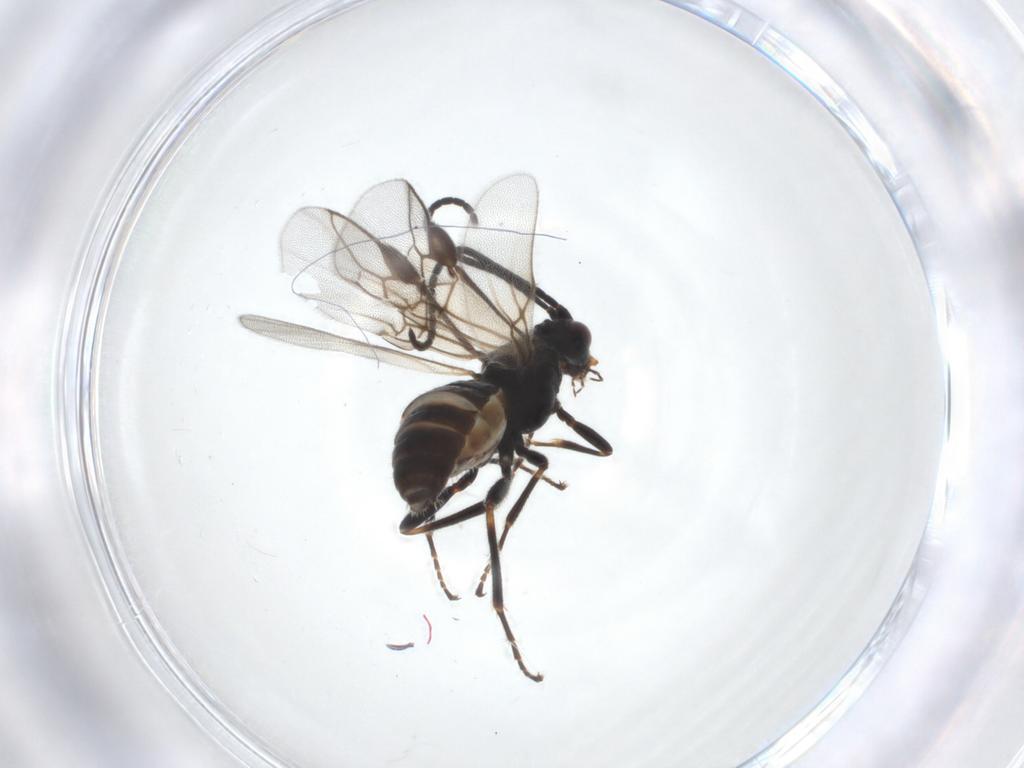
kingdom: Animalia
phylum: Arthropoda
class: Insecta
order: Hymenoptera
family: Braconidae
